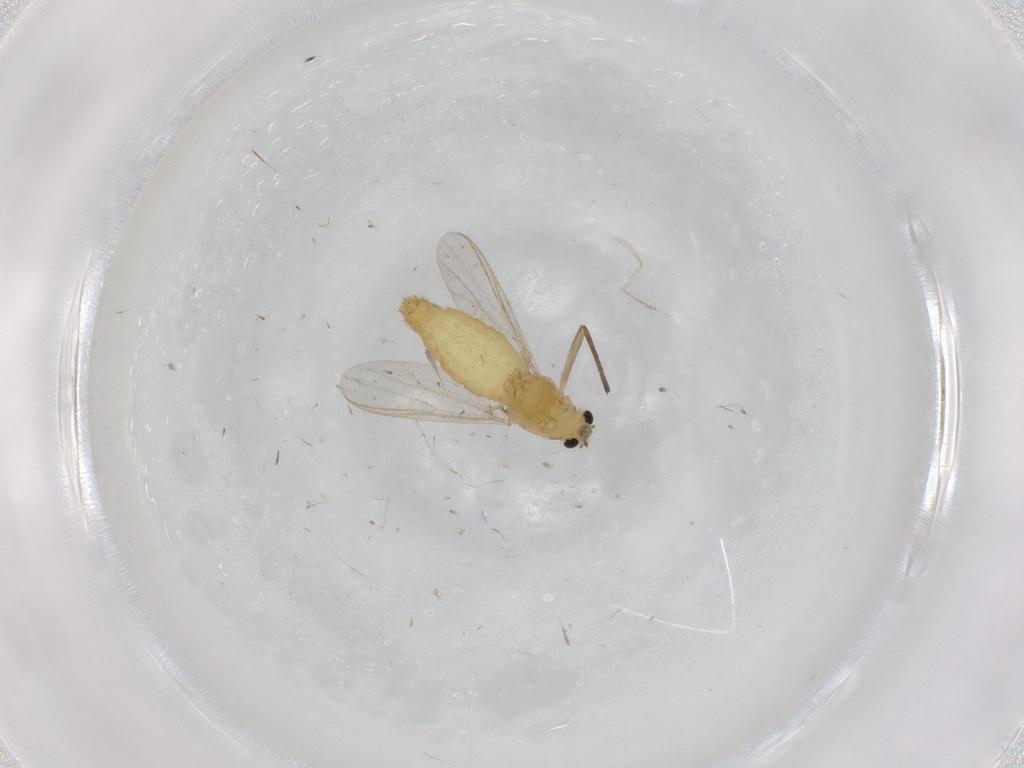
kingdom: Animalia
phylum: Arthropoda
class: Insecta
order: Diptera
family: Chironomidae
